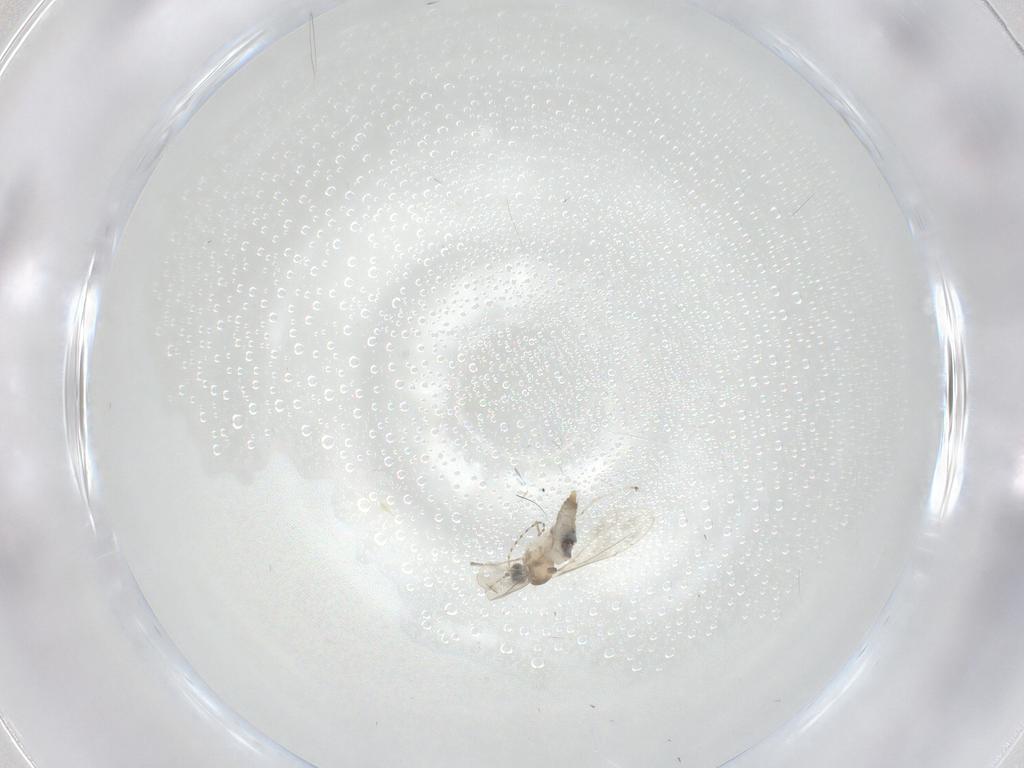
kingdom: Animalia
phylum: Arthropoda
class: Insecta
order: Diptera
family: Cecidomyiidae
